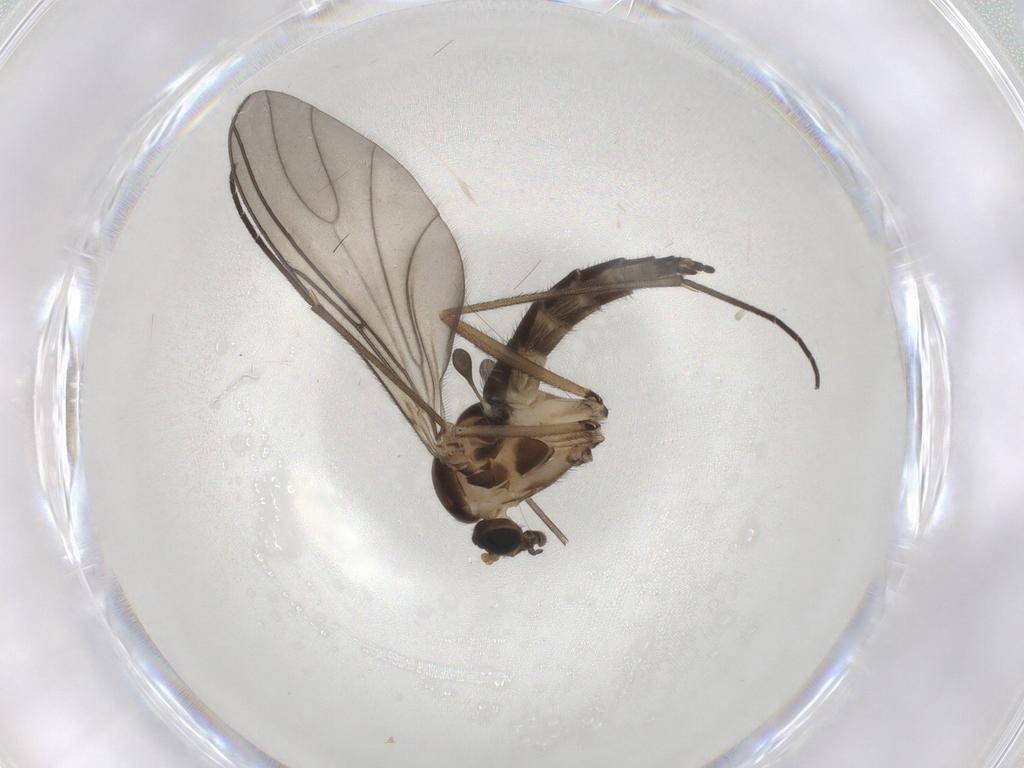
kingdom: Animalia
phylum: Arthropoda
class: Insecta
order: Diptera
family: Sciaridae
